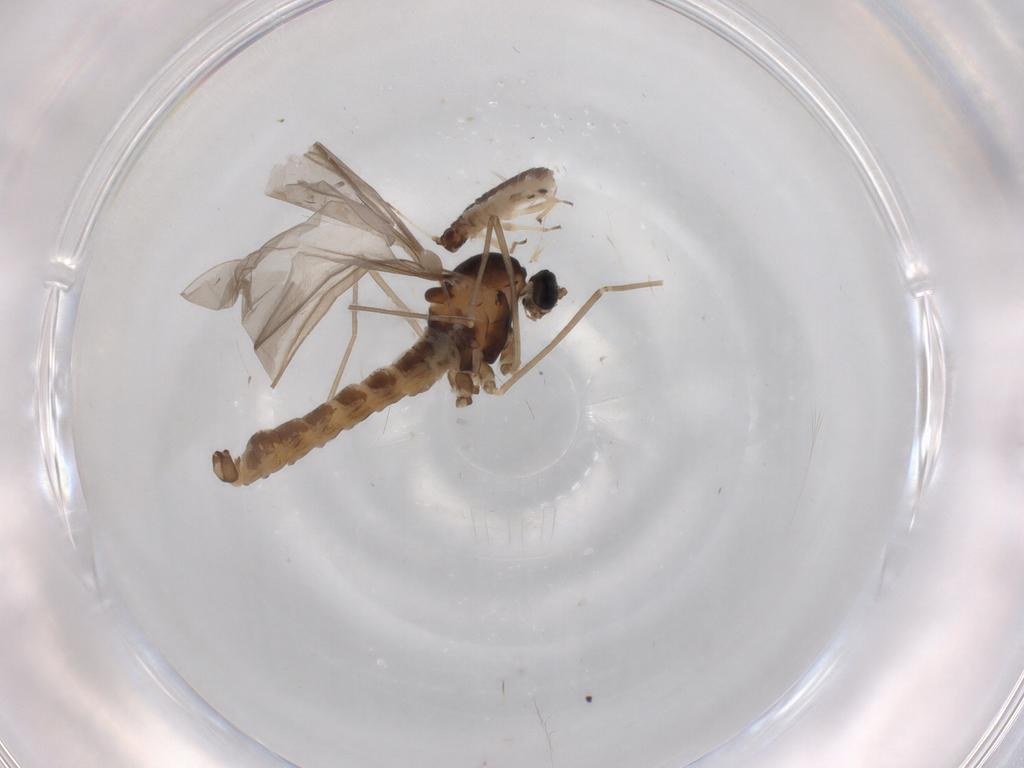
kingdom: Animalia
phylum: Arthropoda
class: Insecta
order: Diptera
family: Cecidomyiidae
